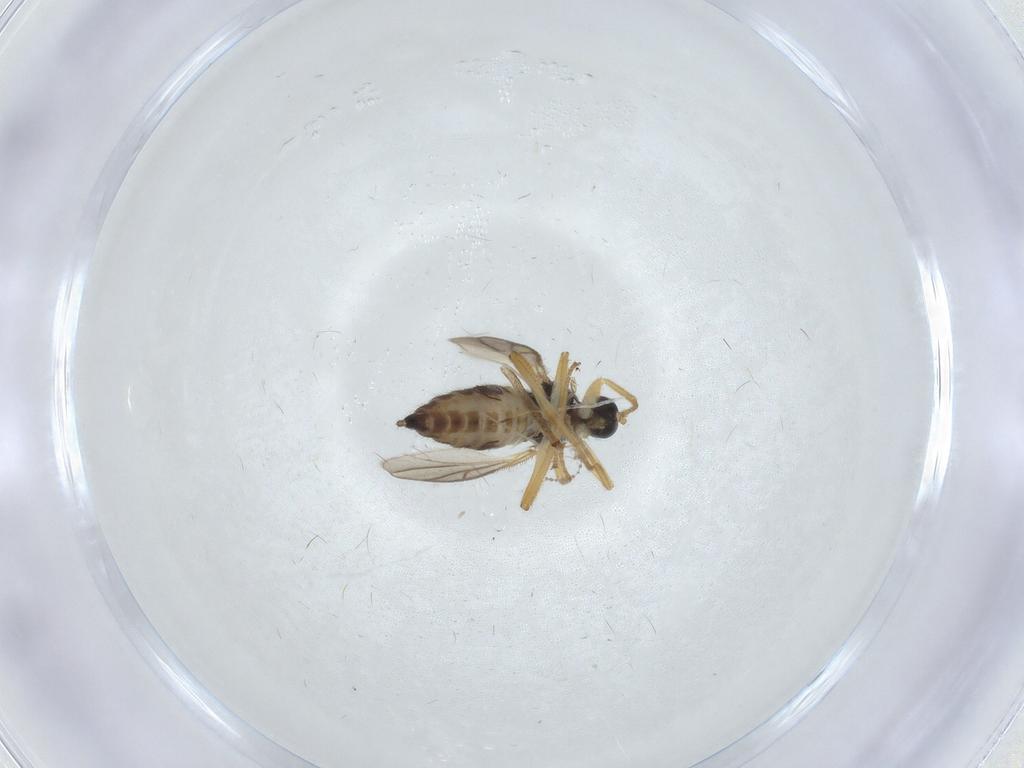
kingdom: Animalia
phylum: Arthropoda
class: Insecta
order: Diptera
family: Hybotidae
